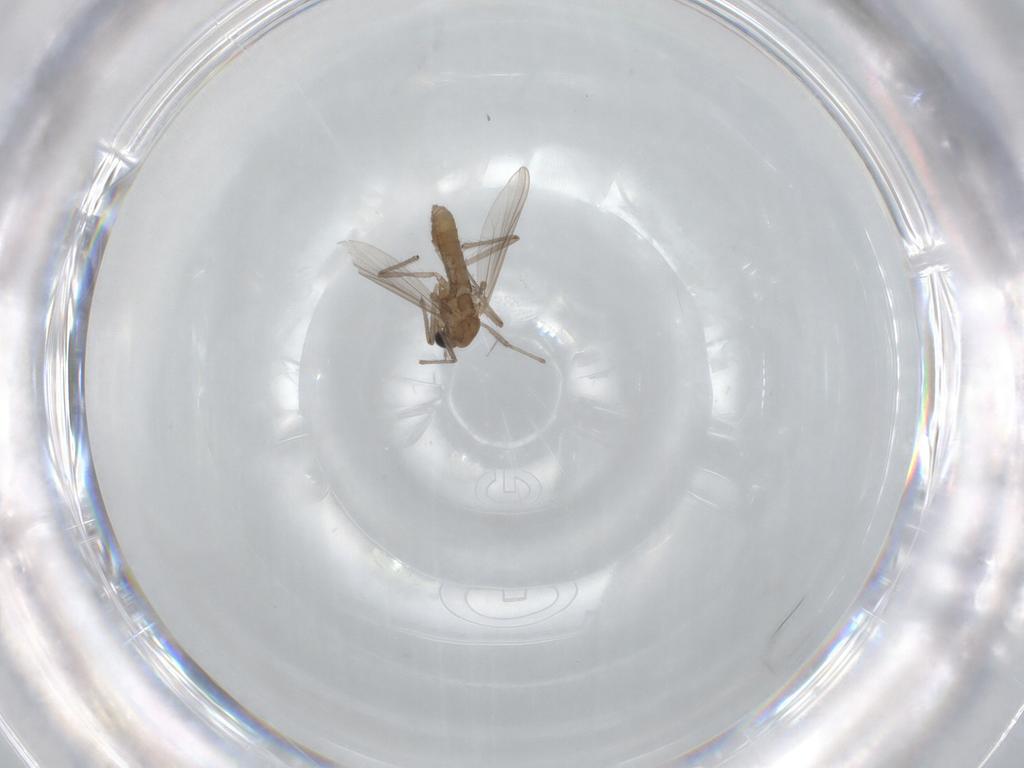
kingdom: Animalia
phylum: Arthropoda
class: Insecta
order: Diptera
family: Chironomidae
